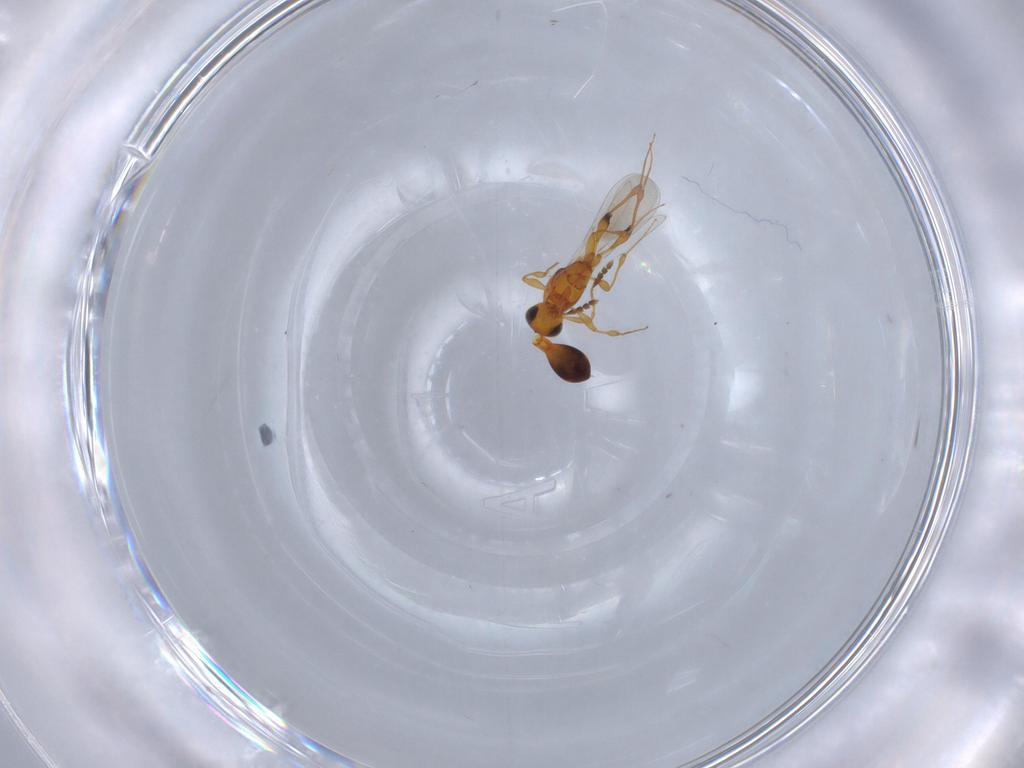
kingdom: Animalia
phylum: Arthropoda
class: Insecta
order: Hymenoptera
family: Platygastridae
